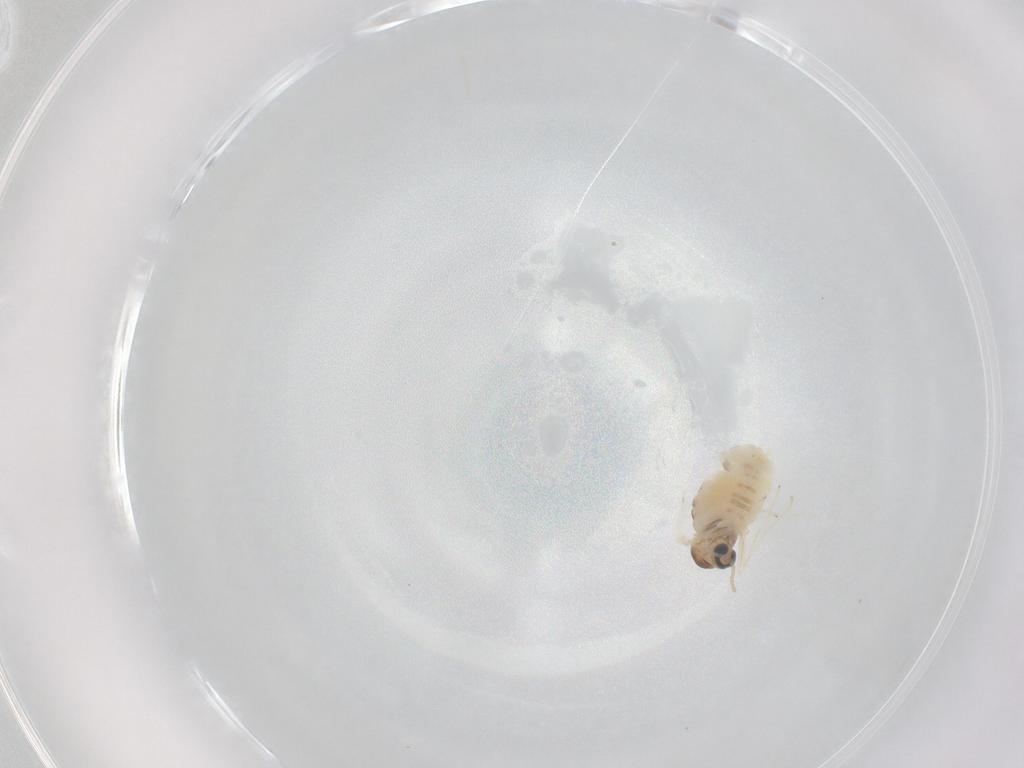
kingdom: Animalia
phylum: Arthropoda
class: Insecta
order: Diptera
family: Cecidomyiidae
